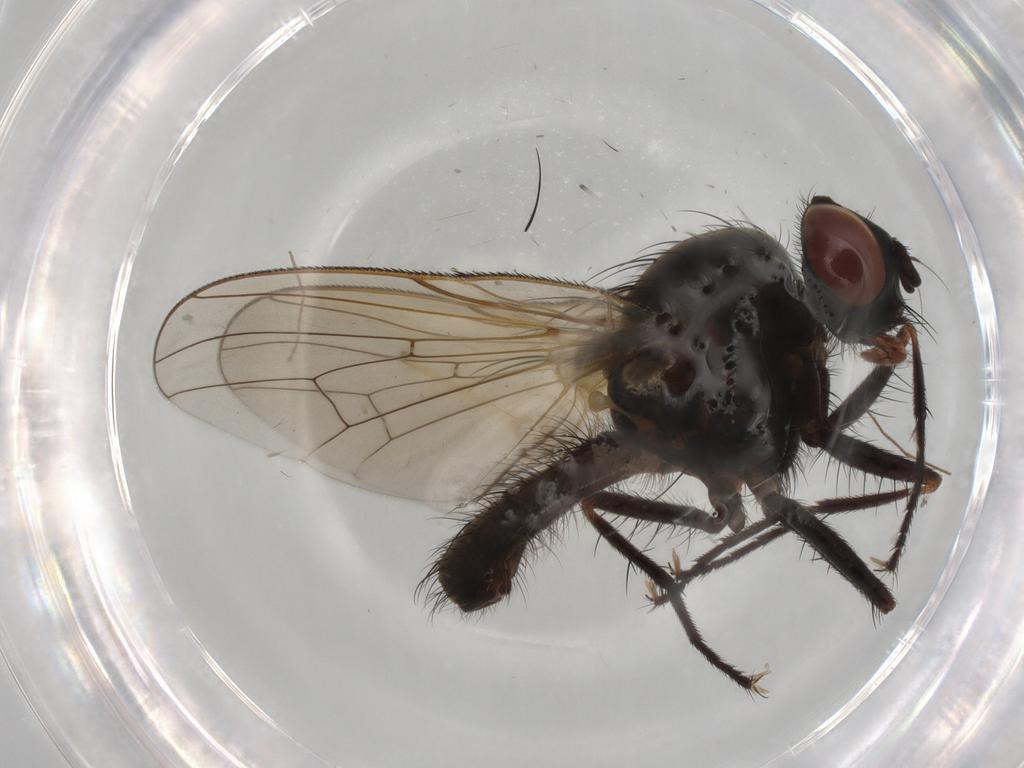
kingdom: Animalia
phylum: Arthropoda
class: Insecta
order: Diptera
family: Anthomyiidae
